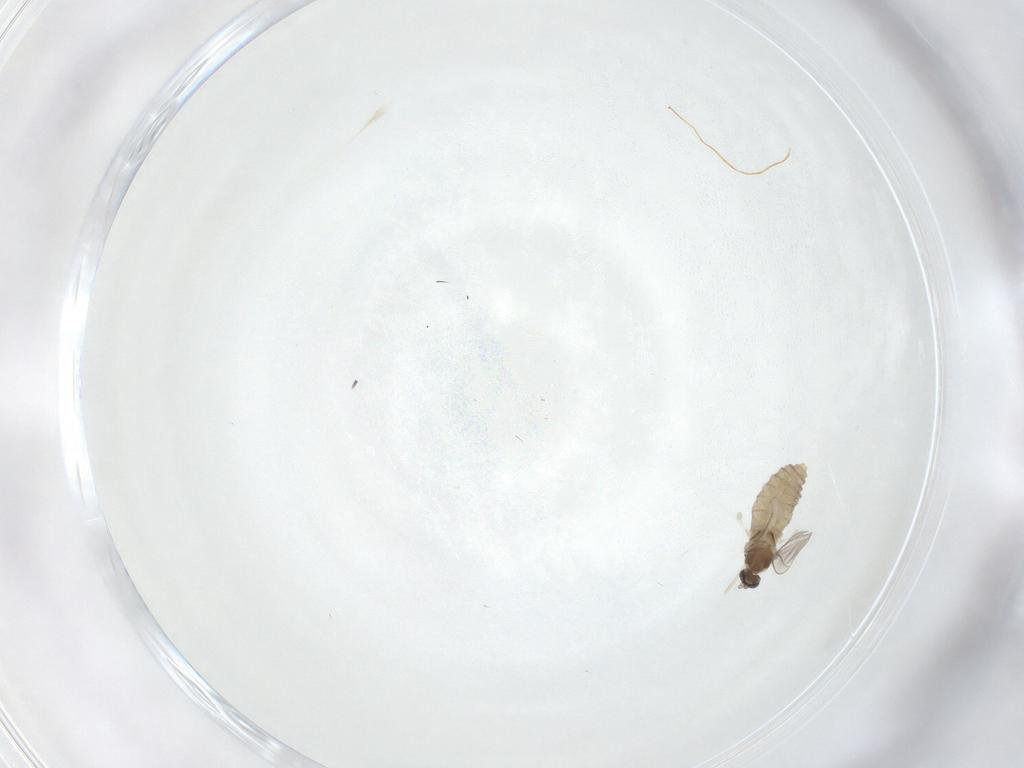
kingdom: Animalia
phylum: Arthropoda
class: Insecta
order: Diptera
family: Cecidomyiidae
